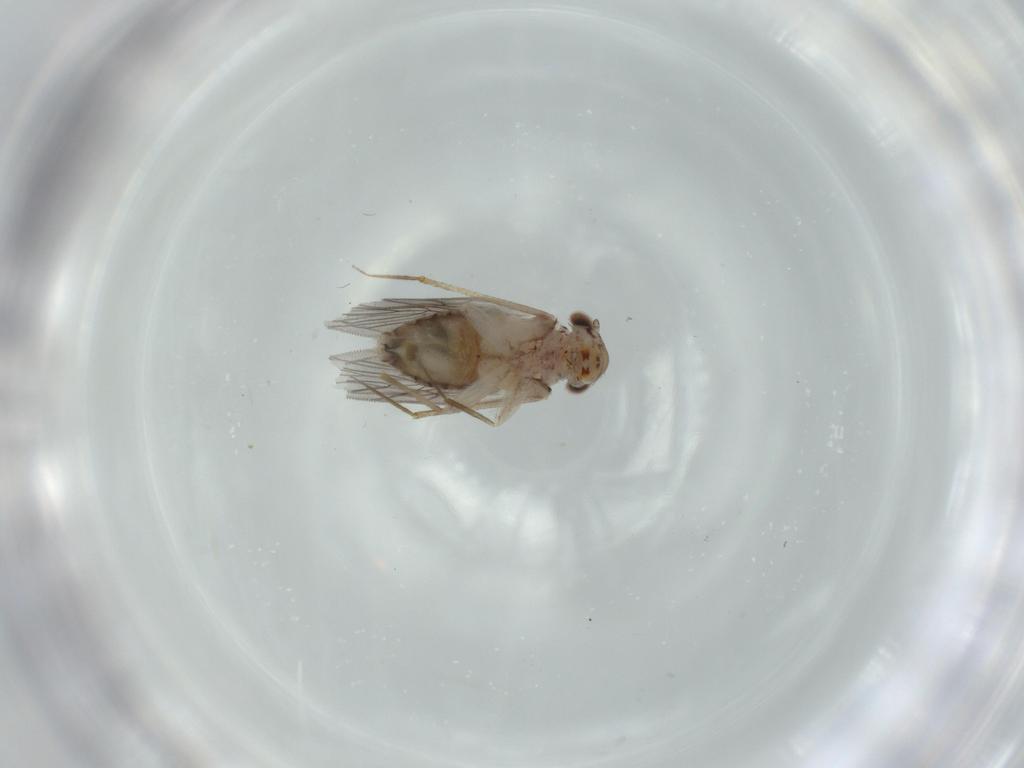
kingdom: Animalia
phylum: Arthropoda
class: Insecta
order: Psocodea
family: Lepidopsocidae
